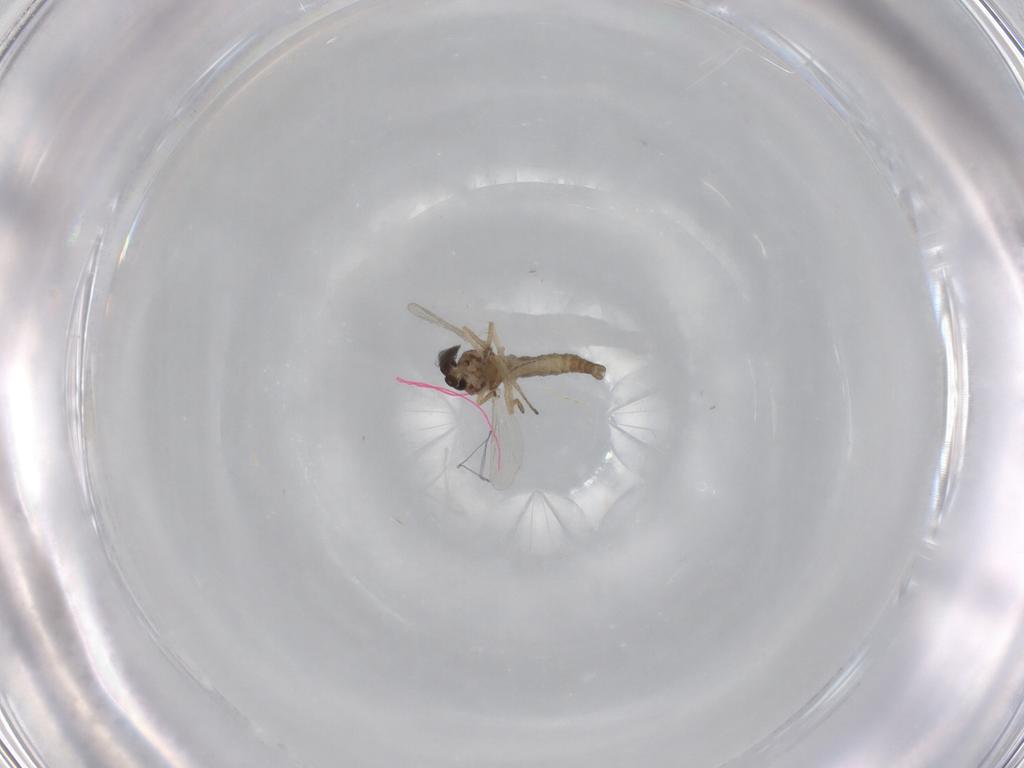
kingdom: Animalia
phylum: Arthropoda
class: Insecta
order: Diptera
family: Ceratopogonidae
